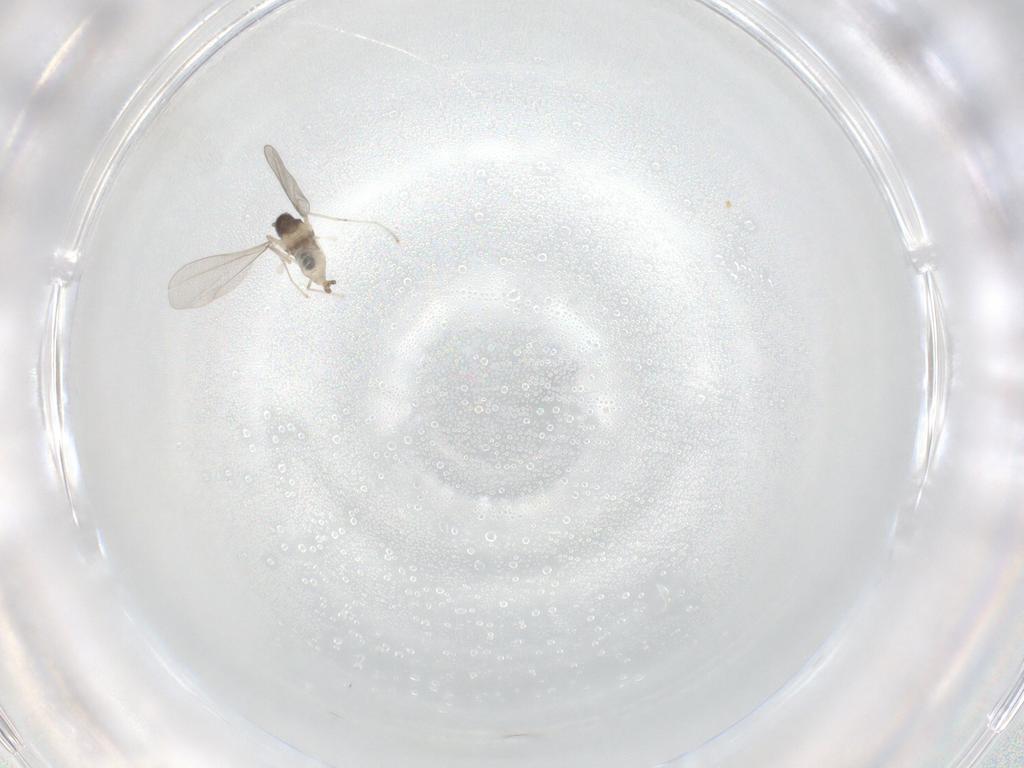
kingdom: Animalia
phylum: Arthropoda
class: Insecta
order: Diptera
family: Cecidomyiidae
